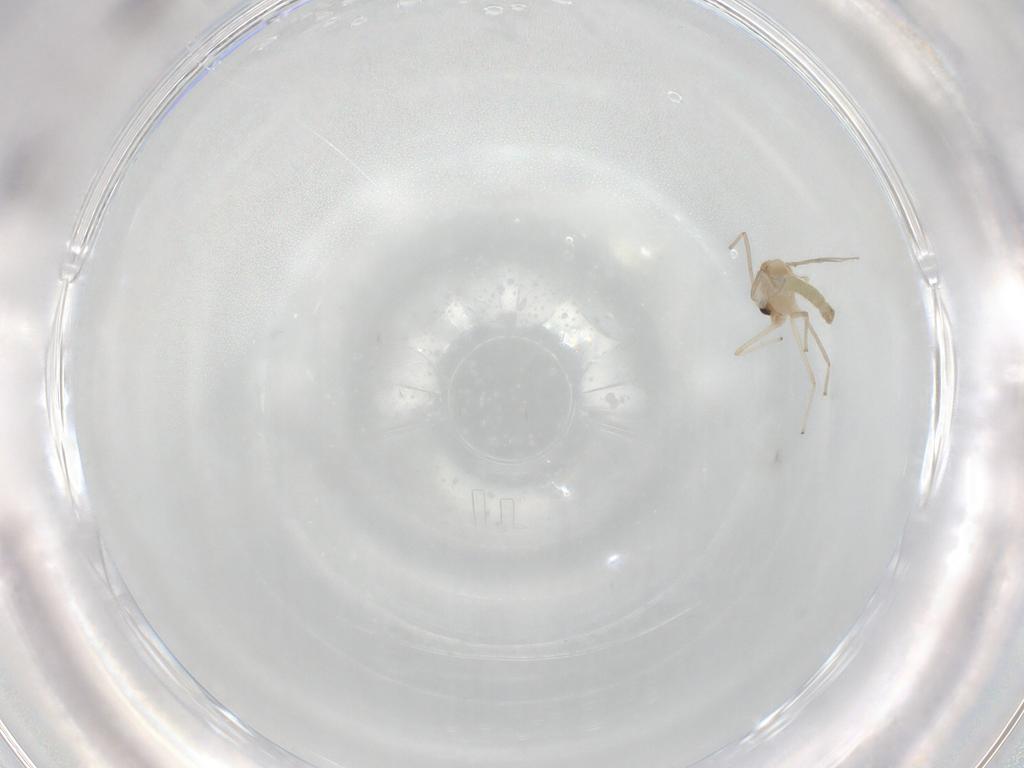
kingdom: Animalia
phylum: Arthropoda
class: Insecta
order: Diptera
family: Chironomidae
